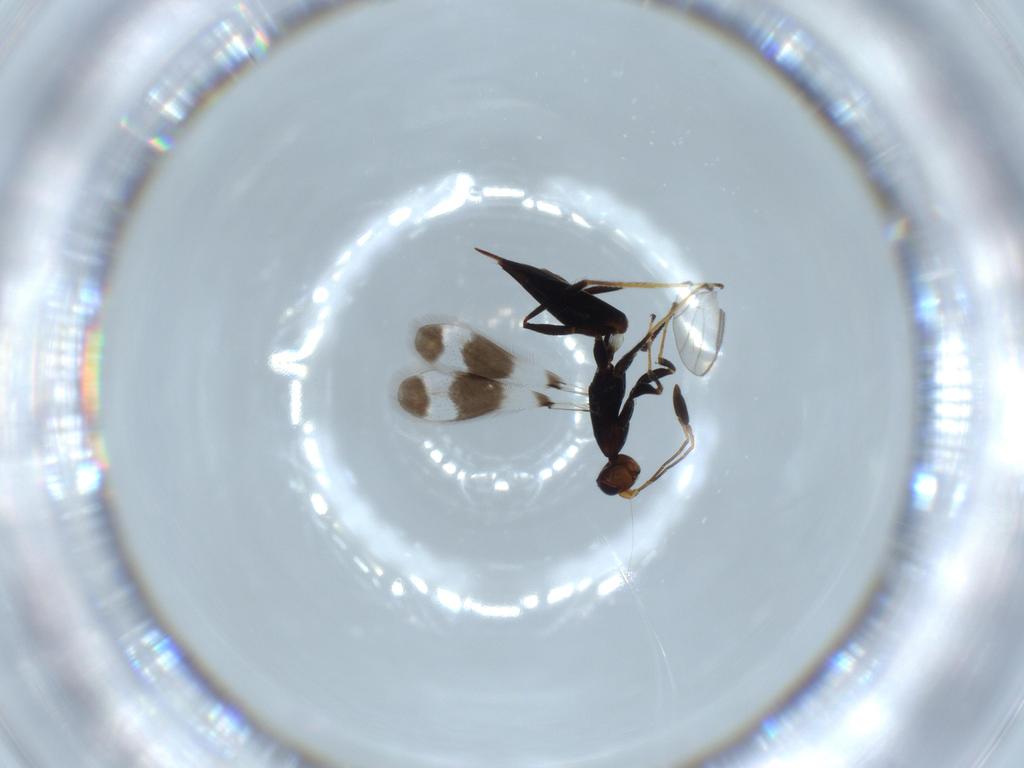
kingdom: Animalia
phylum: Arthropoda
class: Insecta
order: Hymenoptera
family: Mymaridae
